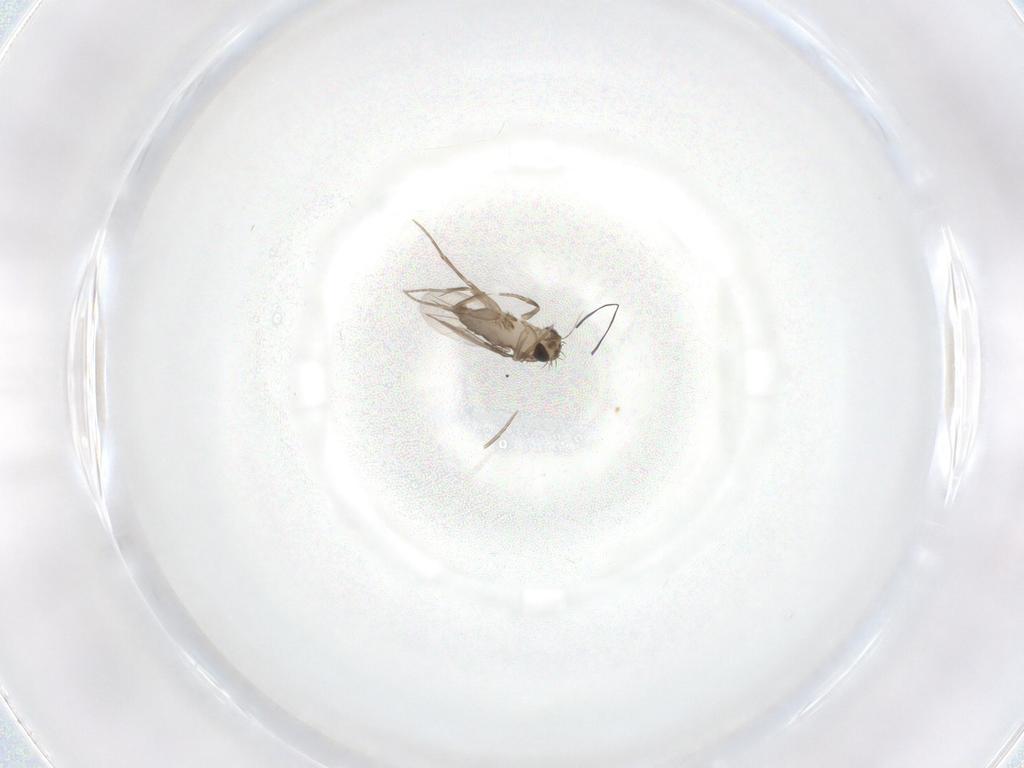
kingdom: Animalia
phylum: Arthropoda
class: Insecta
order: Diptera
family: Phoridae
